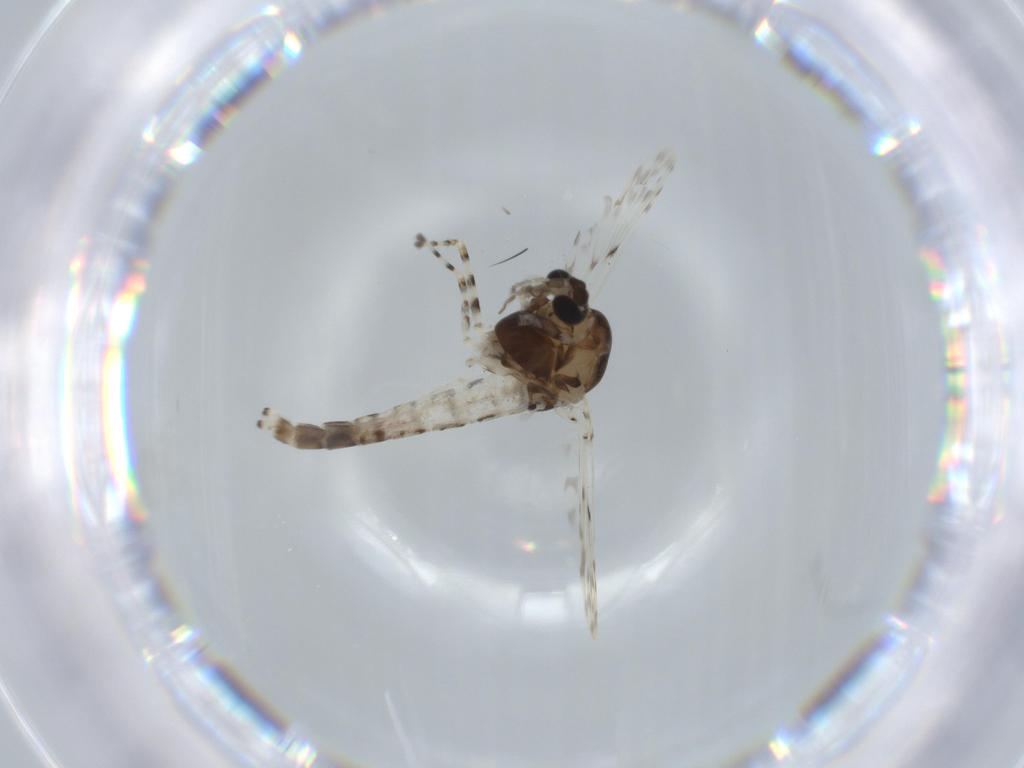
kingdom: Animalia
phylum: Arthropoda
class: Insecta
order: Diptera
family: Chironomidae
